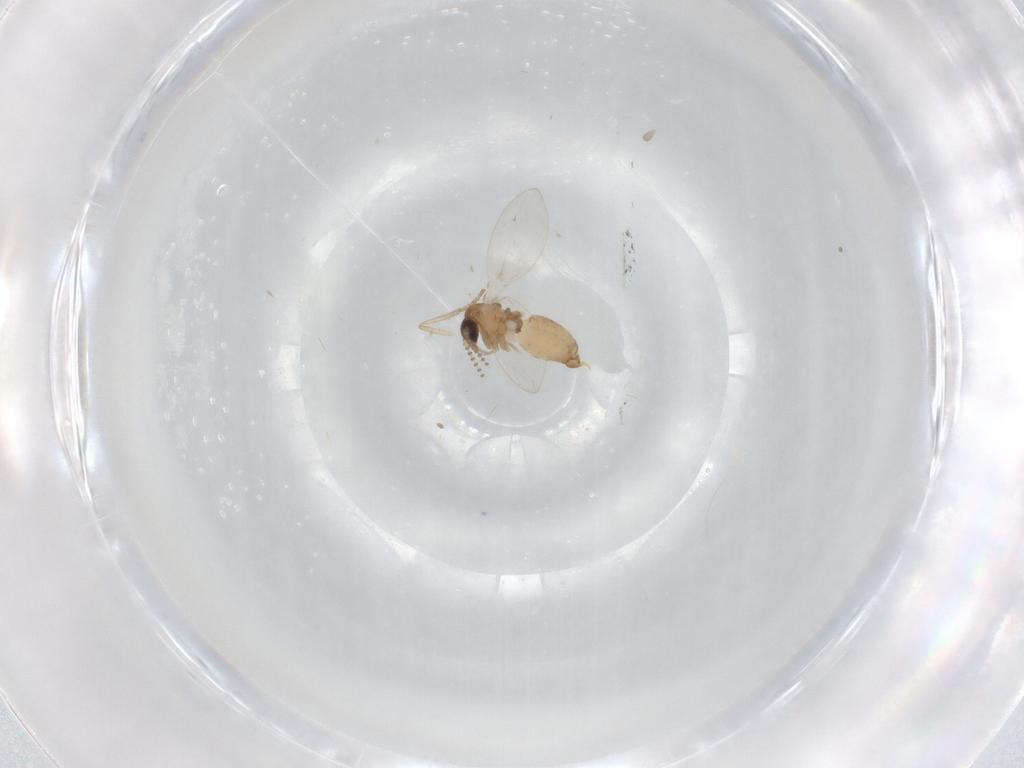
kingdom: Animalia
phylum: Arthropoda
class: Insecta
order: Diptera
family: Psychodidae
